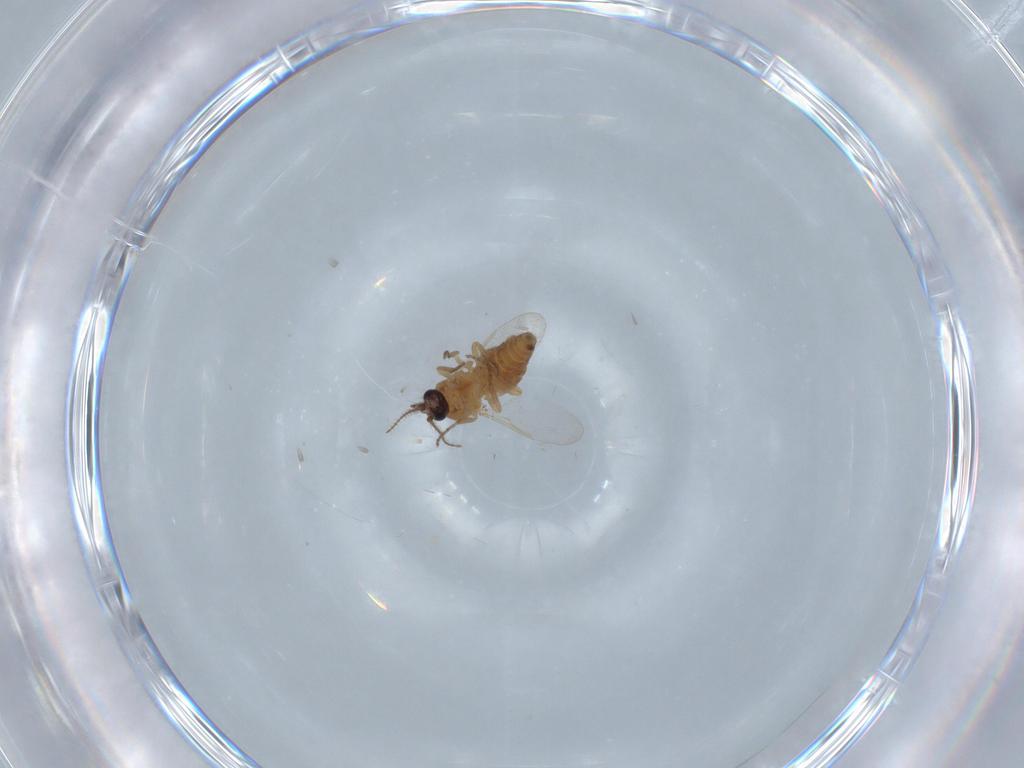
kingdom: Animalia
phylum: Arthropoda
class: Insecta
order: Diptera
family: Ceratopogonidae
